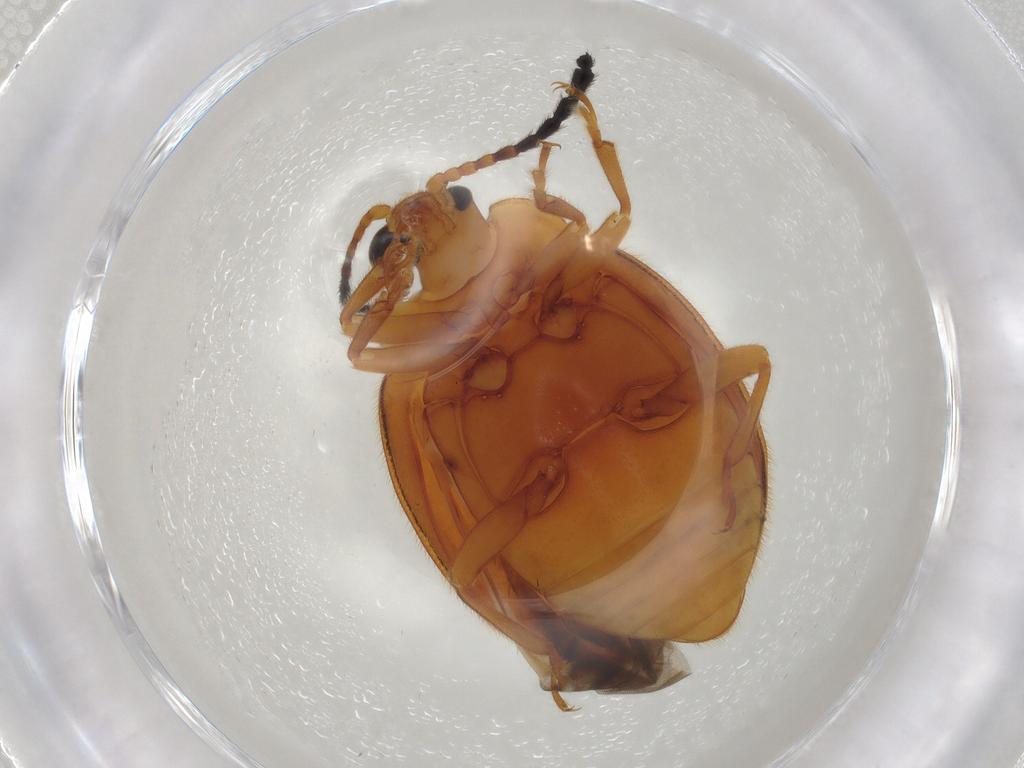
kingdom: Animalia
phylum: Arthropoda
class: Insecta
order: Coleoptera
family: Endomychidae
